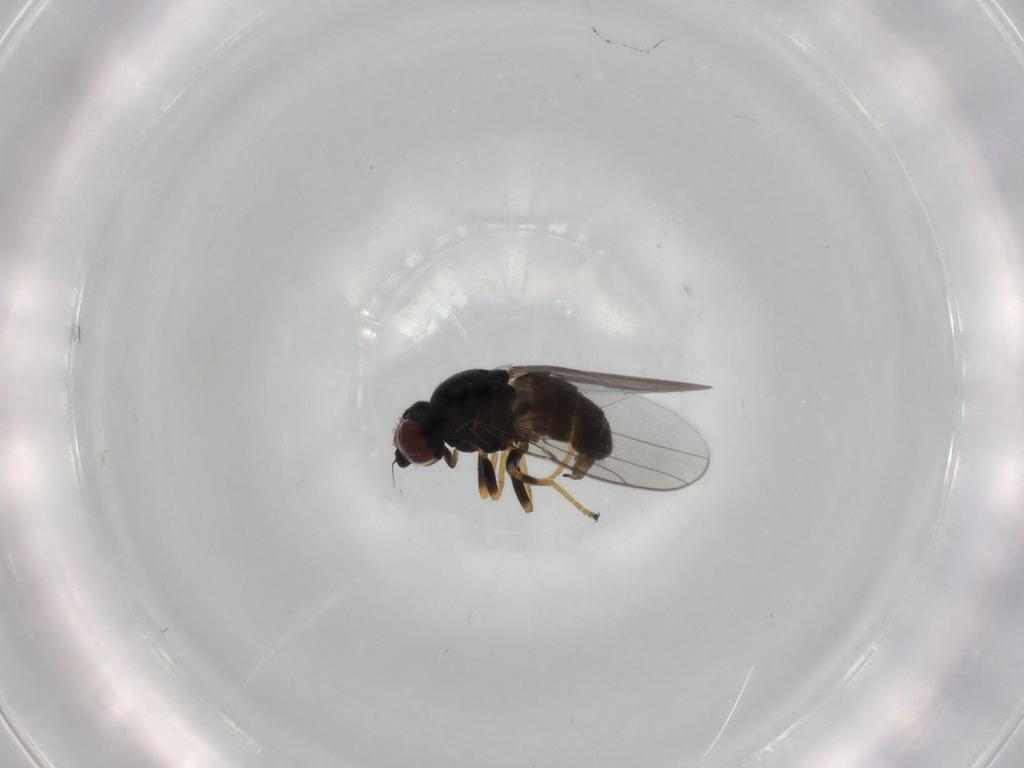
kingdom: Animalia
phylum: Arthropoda
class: Insecta
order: Diptera
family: Chloropidae
